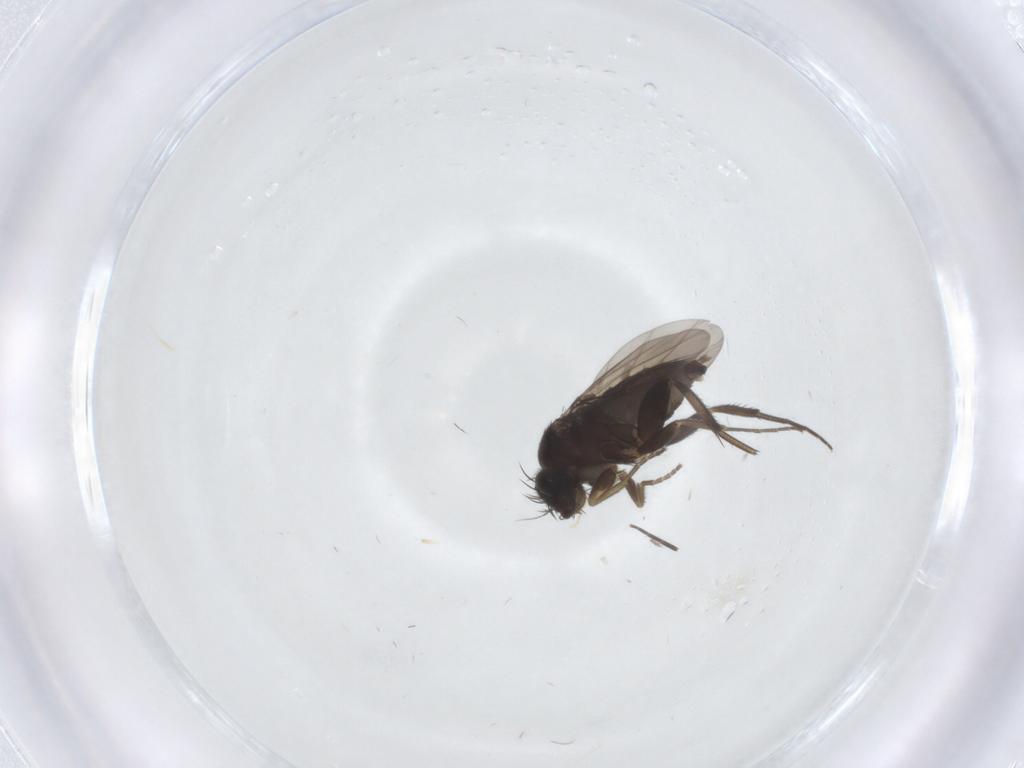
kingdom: Animalia
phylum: Arthropoda
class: Insecta
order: Diptera
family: Phoridae
